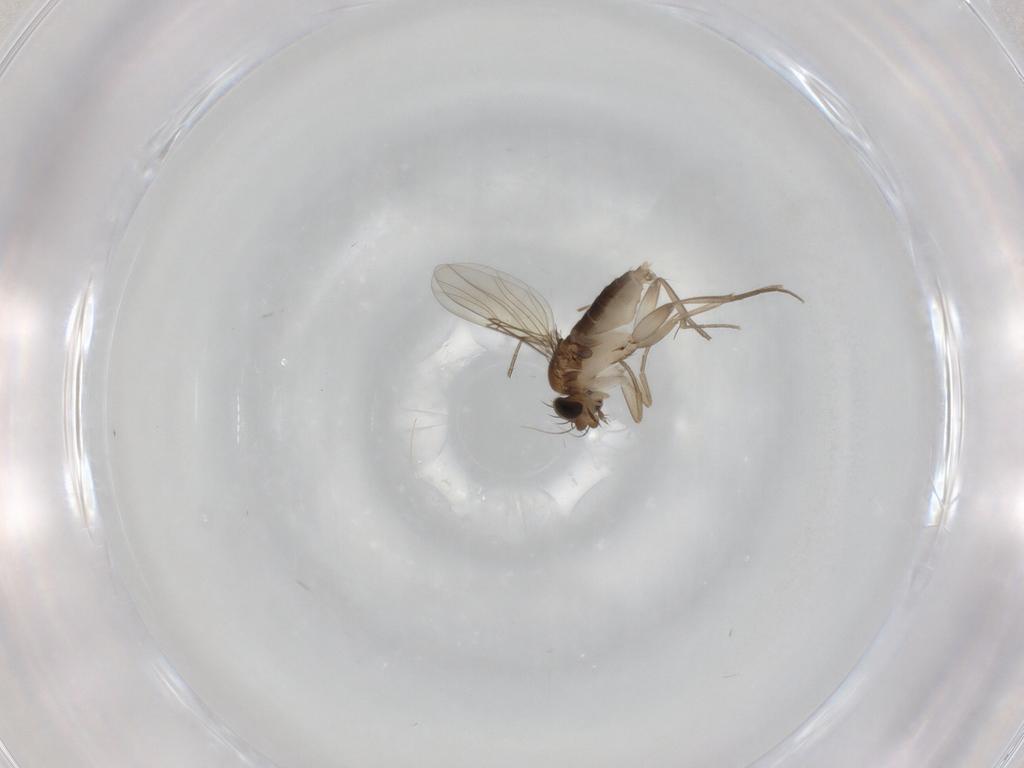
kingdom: Animalia
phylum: Arthropoda
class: Insecta
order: Diptera
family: Phoridae
